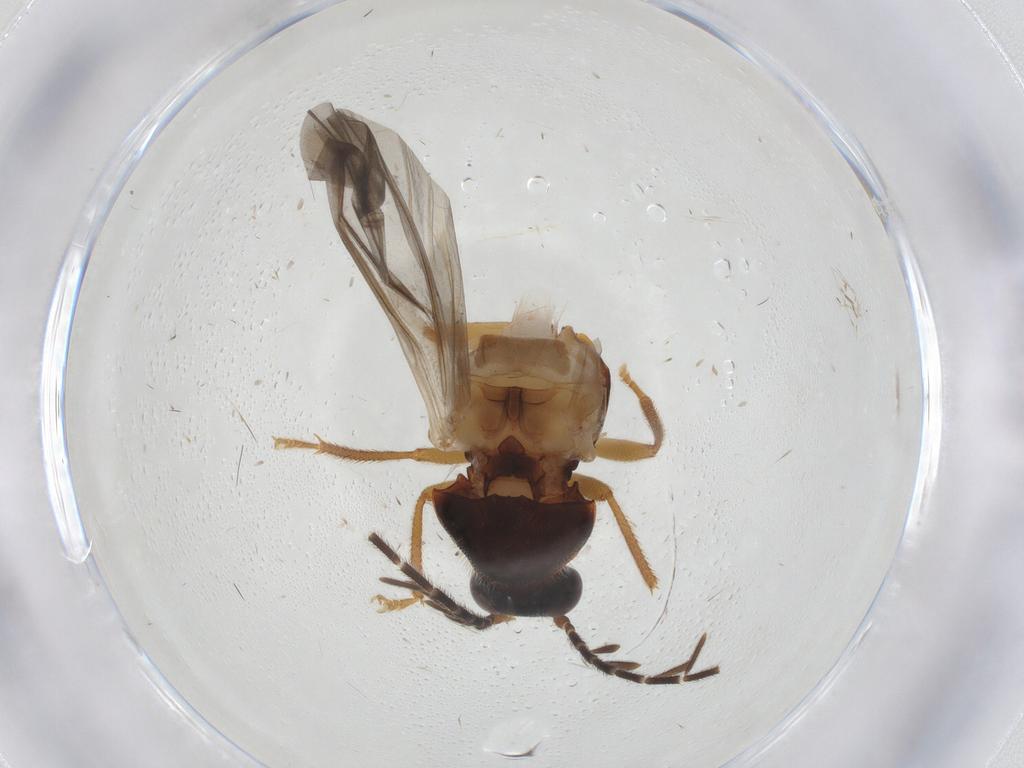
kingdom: Animalia
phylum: Arthropoda
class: Insecta
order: Coleoptera
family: Ptilodactylidae
